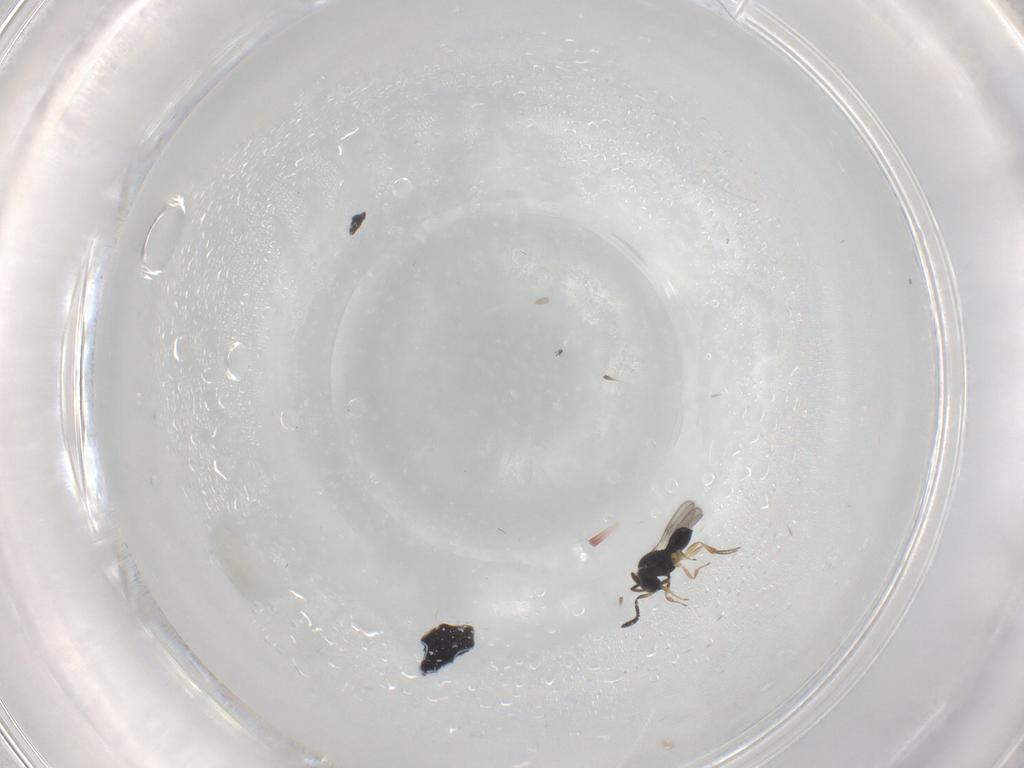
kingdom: Animalia
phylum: Arthropoda
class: Insecta
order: Hymenoptera
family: Scelionidae
